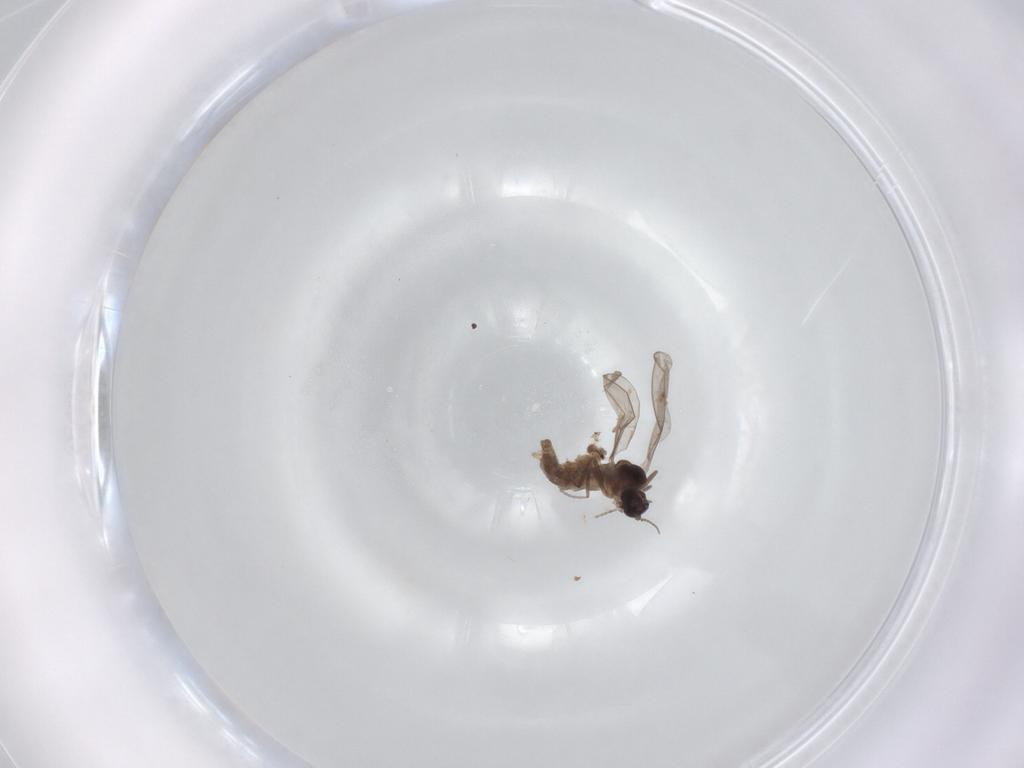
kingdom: Animalia
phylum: Arthropoda
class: Insecta
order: Diptera
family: Cecidomyiidae
